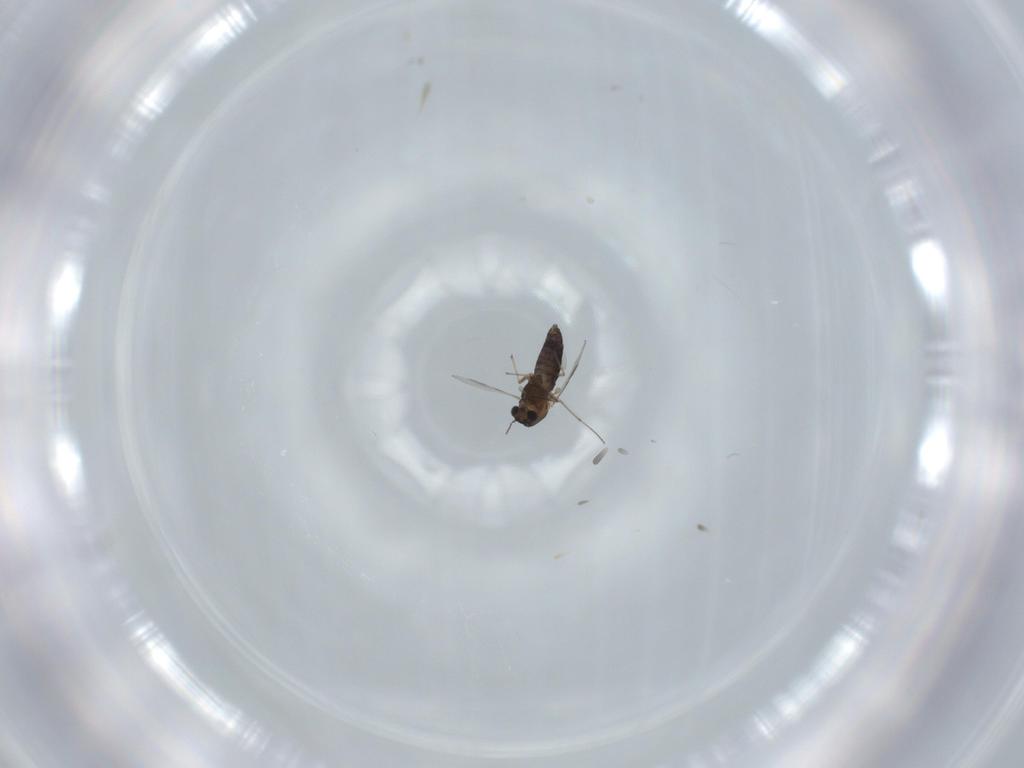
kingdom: Animalia
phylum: Arthropoda
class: Insecta
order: Diptera
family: Chironomidae
